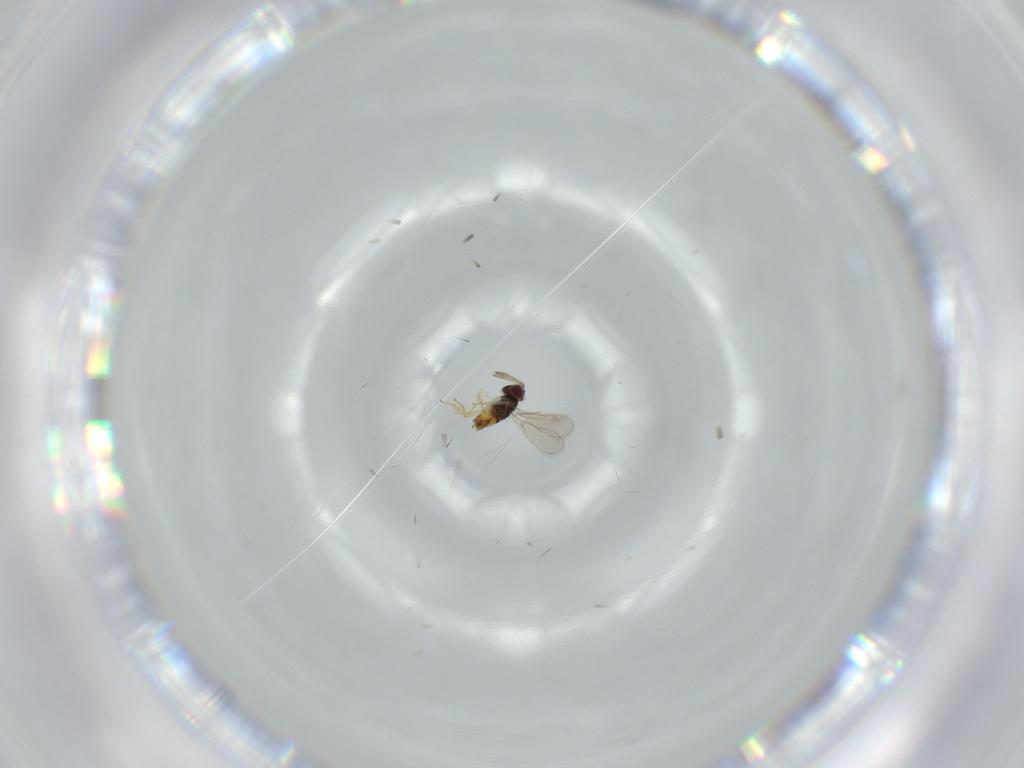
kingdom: Animalia
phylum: Arthropoda
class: Insecta
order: Hymenoptera
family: Aphelinidae
